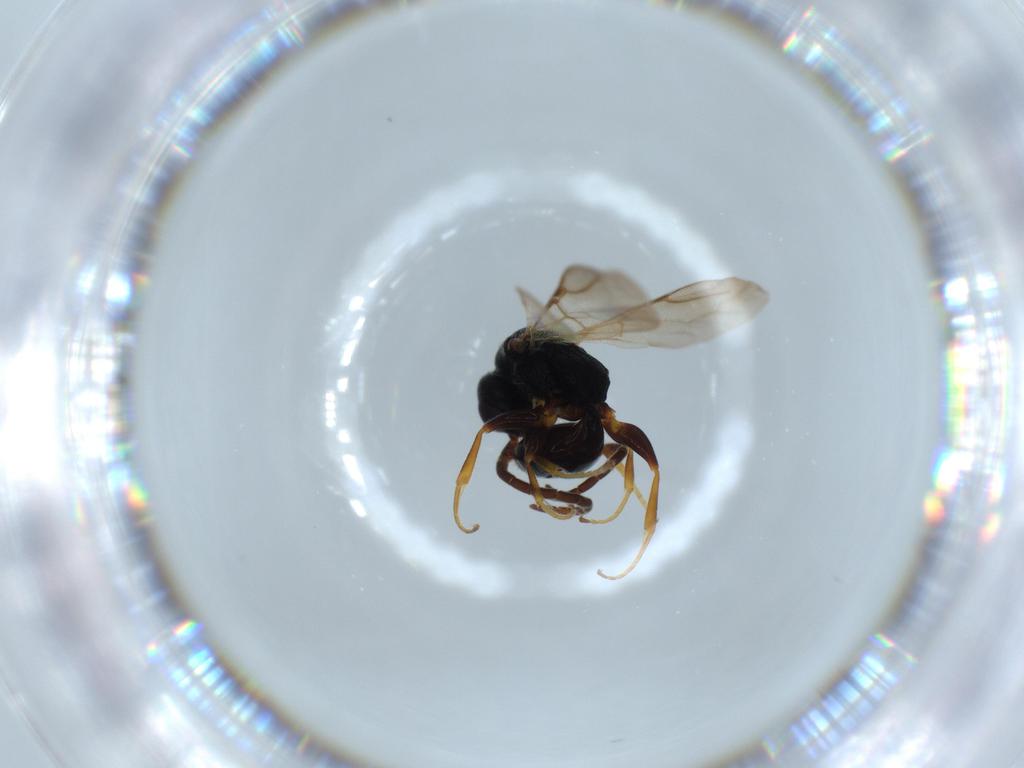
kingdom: Animalia
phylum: Arthropoda
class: Insecta
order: Hymenoptera
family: Bethylidae
